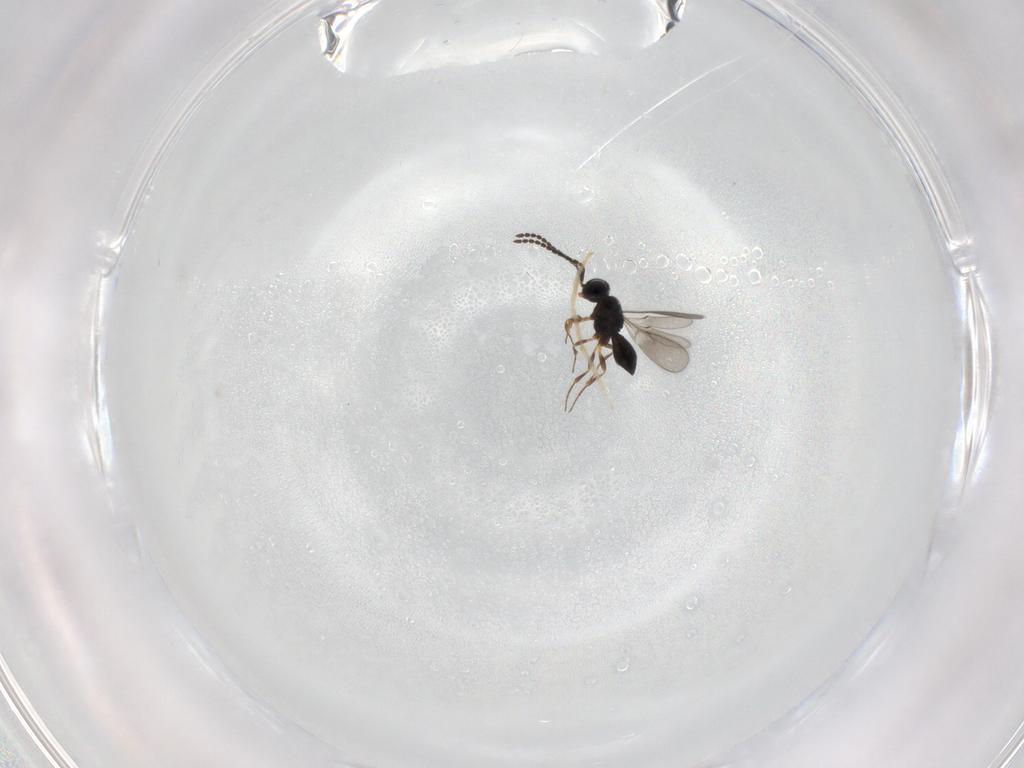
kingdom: Animalia
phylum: Arthropoda
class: Insecta
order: Hymenoptera
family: Scelionidae
